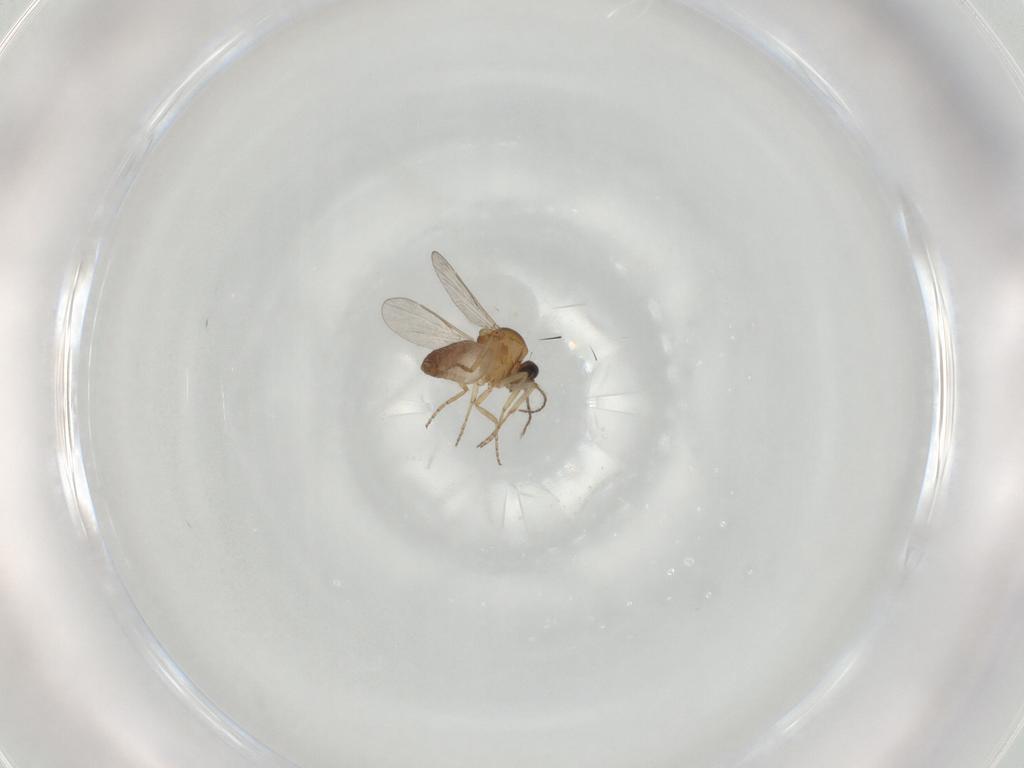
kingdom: Animalia
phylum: Arthropoda
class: Insecta
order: Diptera
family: Ceratopogonidae
